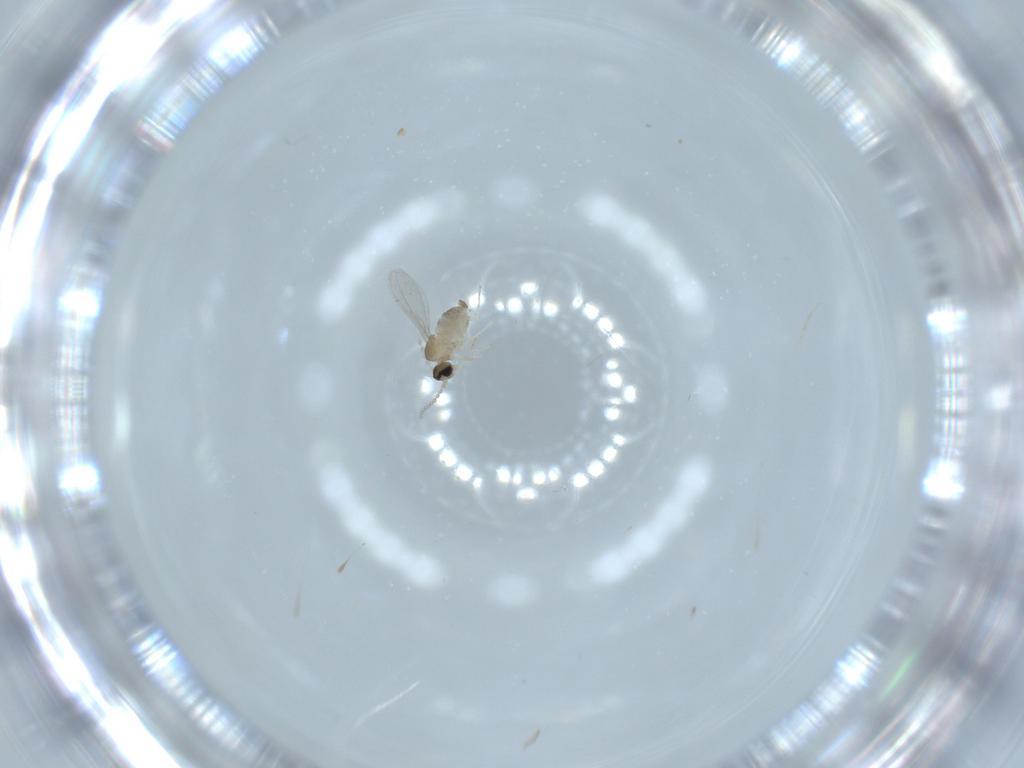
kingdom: Animalia
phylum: Arthropoda
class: Insecta
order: Diptera
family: Cecidomyiidae
